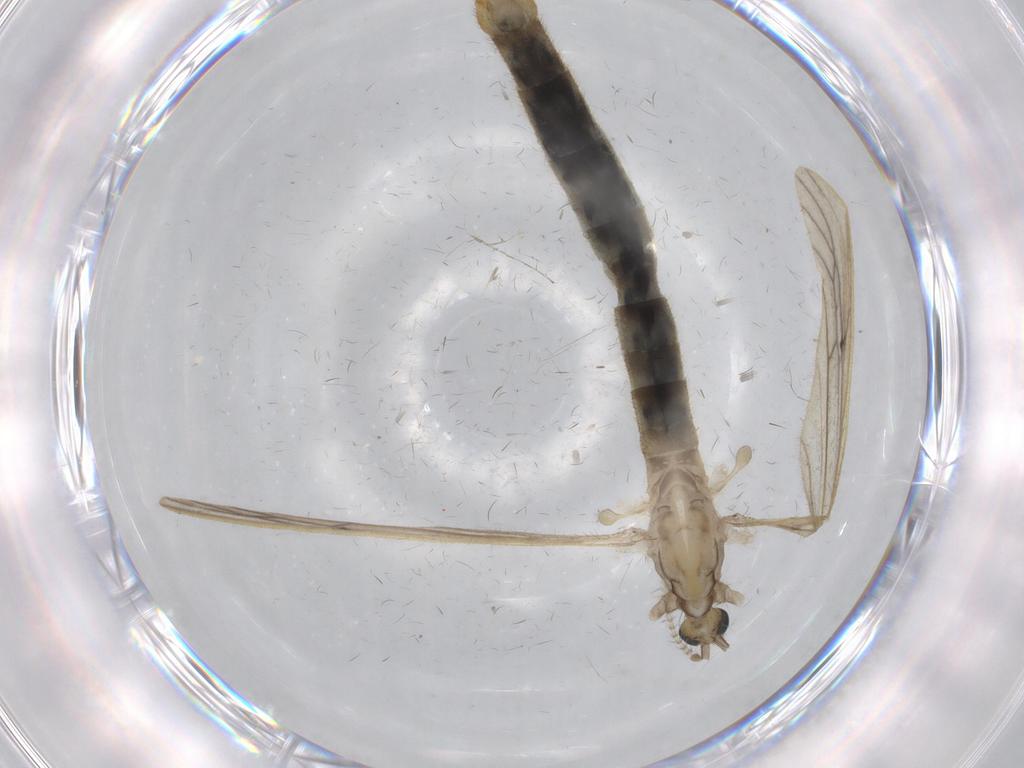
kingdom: Animalia
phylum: Arthropoda
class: Insecta
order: Diptera
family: Limoniidae
